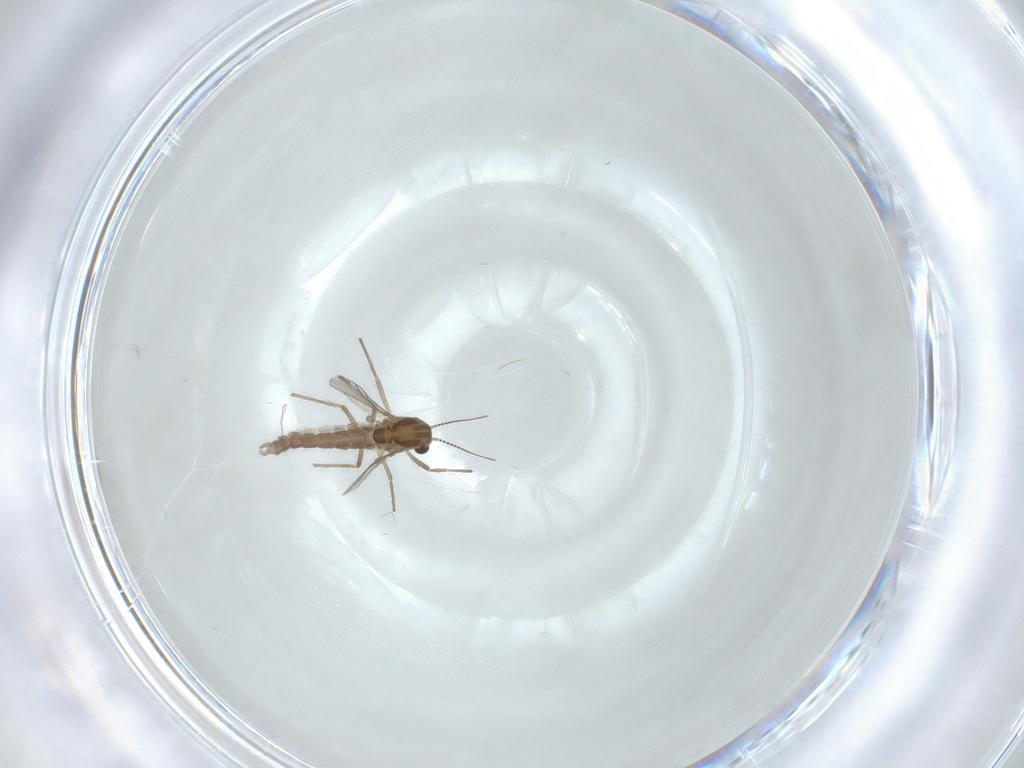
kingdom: Animalia
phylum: Arthropoda
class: Insecta
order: Diptera
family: Chironomidae
